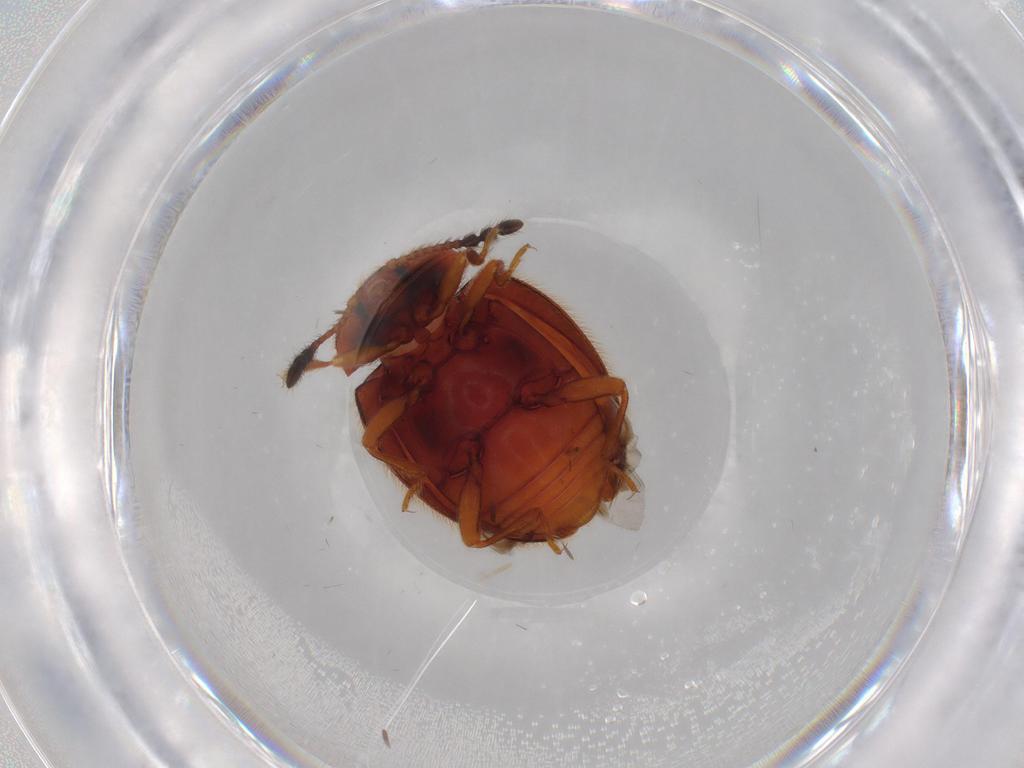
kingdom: Animalia
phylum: Arthropoda
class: Insecta
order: Coleoptera
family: Endomychidae
